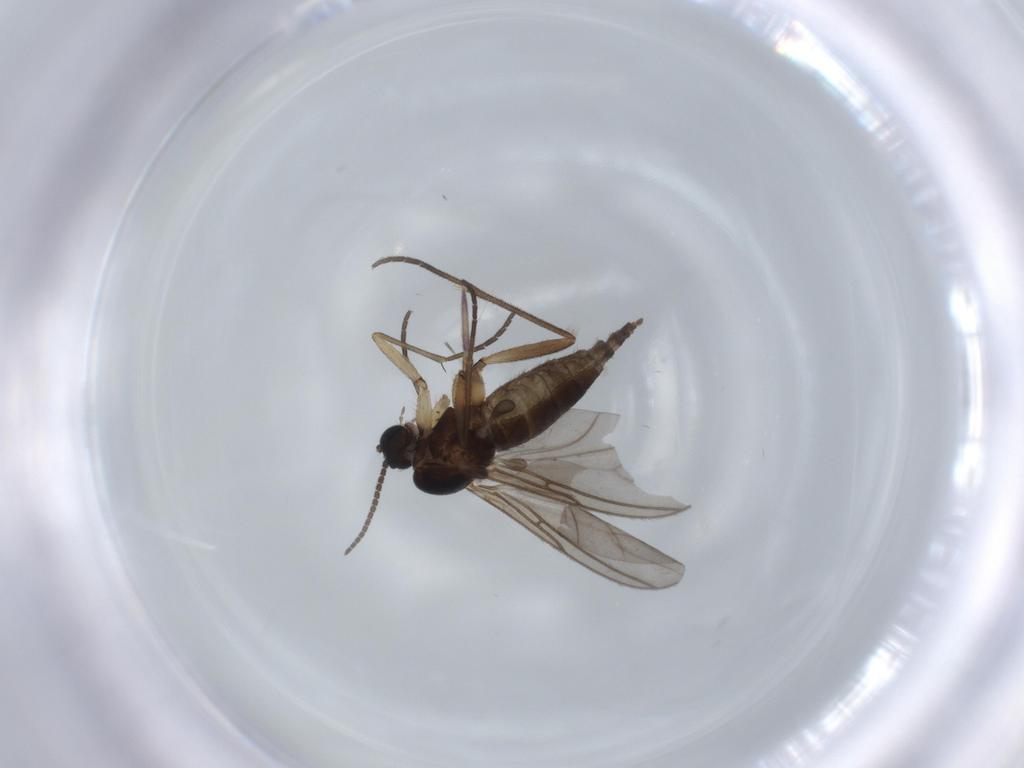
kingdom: Animalia
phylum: Arthropoda
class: Insecta
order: Diptera
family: Sciaridae
